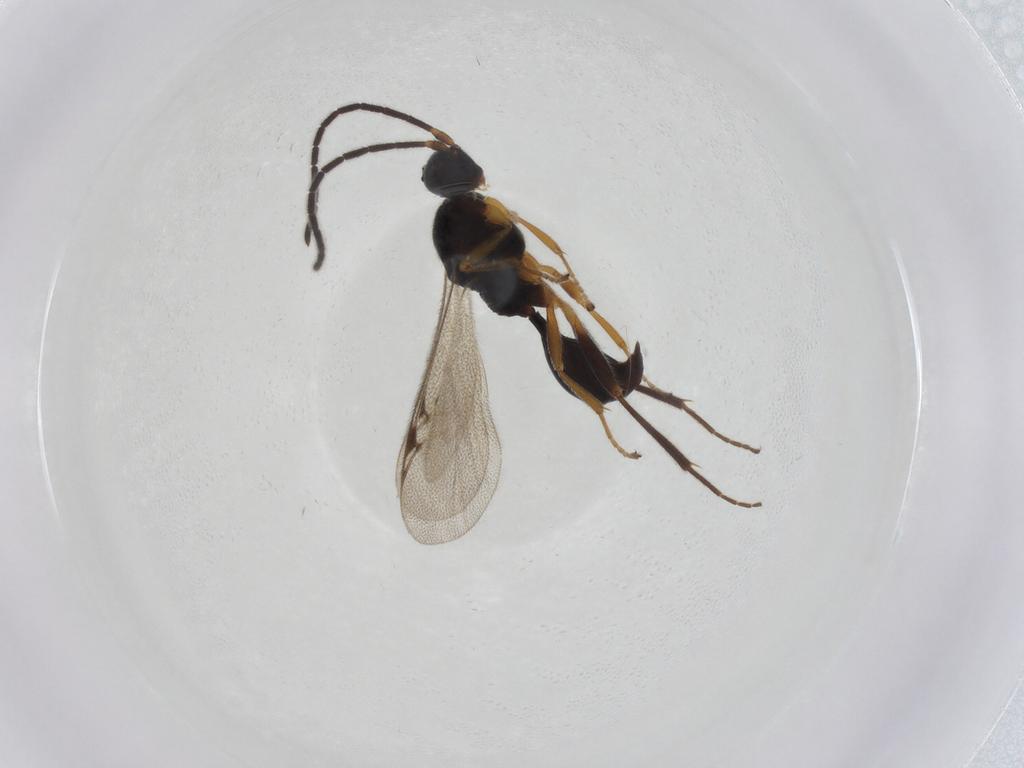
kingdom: Animalia
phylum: Arthropoda
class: Insecta
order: Hymenoptera
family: Proctotrupidae
